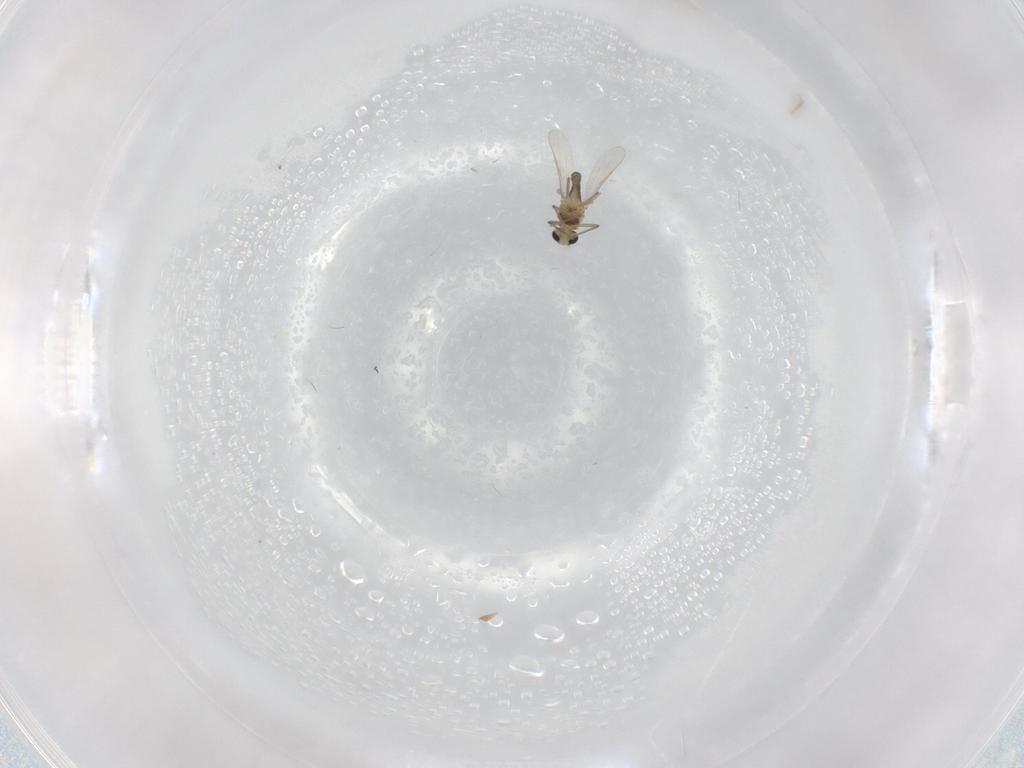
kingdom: Animalia
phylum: Arthropoda
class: Insecta
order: Diptera
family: Chironomidae
